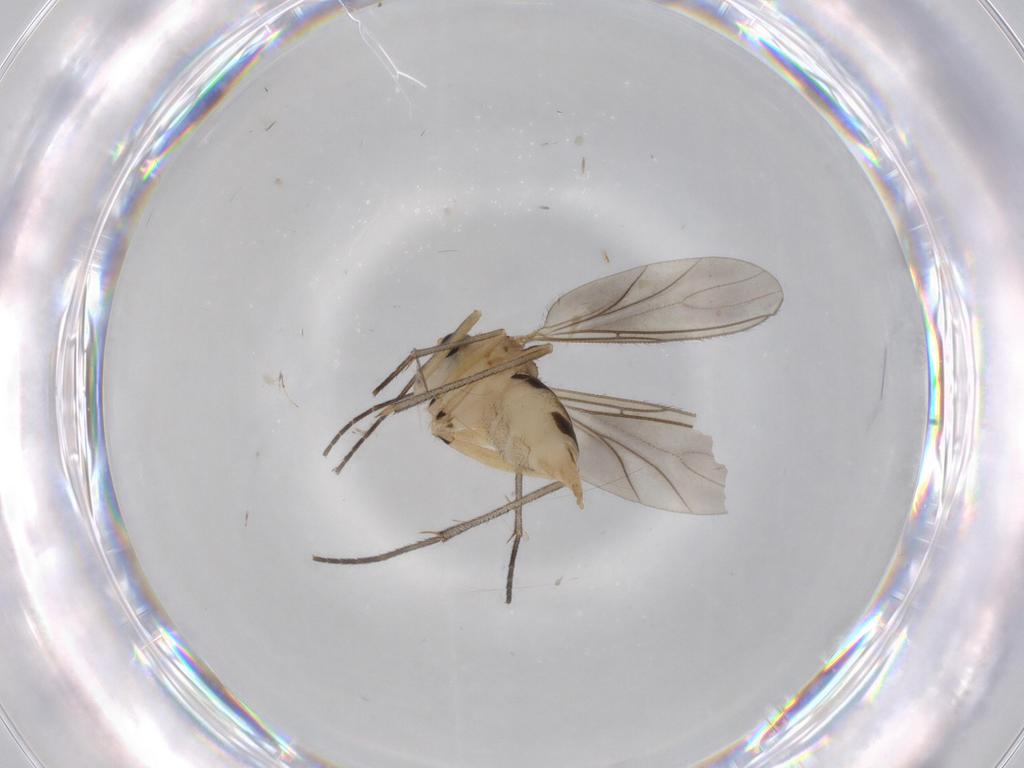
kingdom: Animalia
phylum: Arthropoda
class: Insecta
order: Diptera
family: Sciaridae
